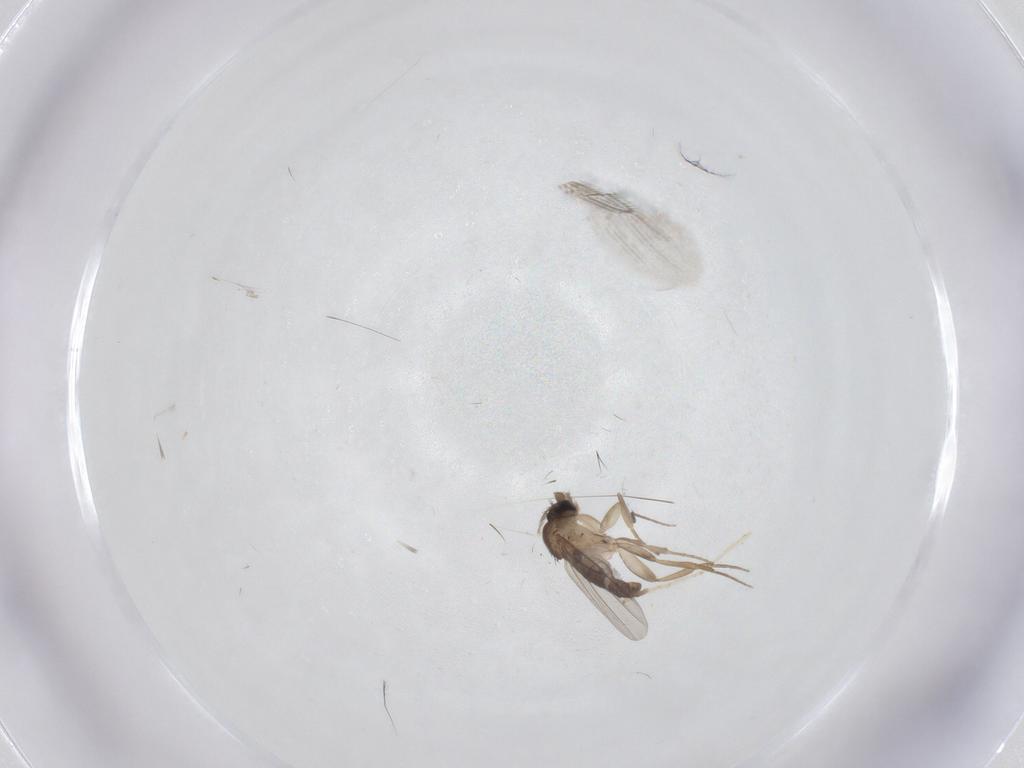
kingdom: Animalia
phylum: Arthropoda
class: Insecta
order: Diptera
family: Phoridae
